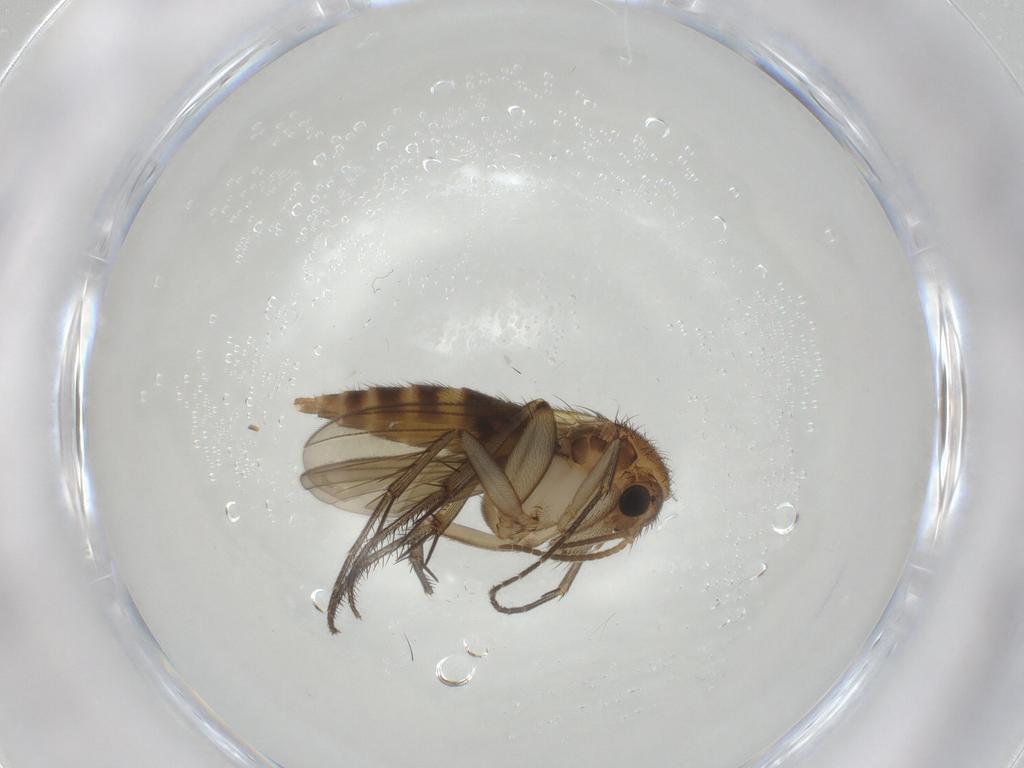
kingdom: Animalia
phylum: Arthropoda
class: Insecta
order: Diptera
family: Mycetophilidae
